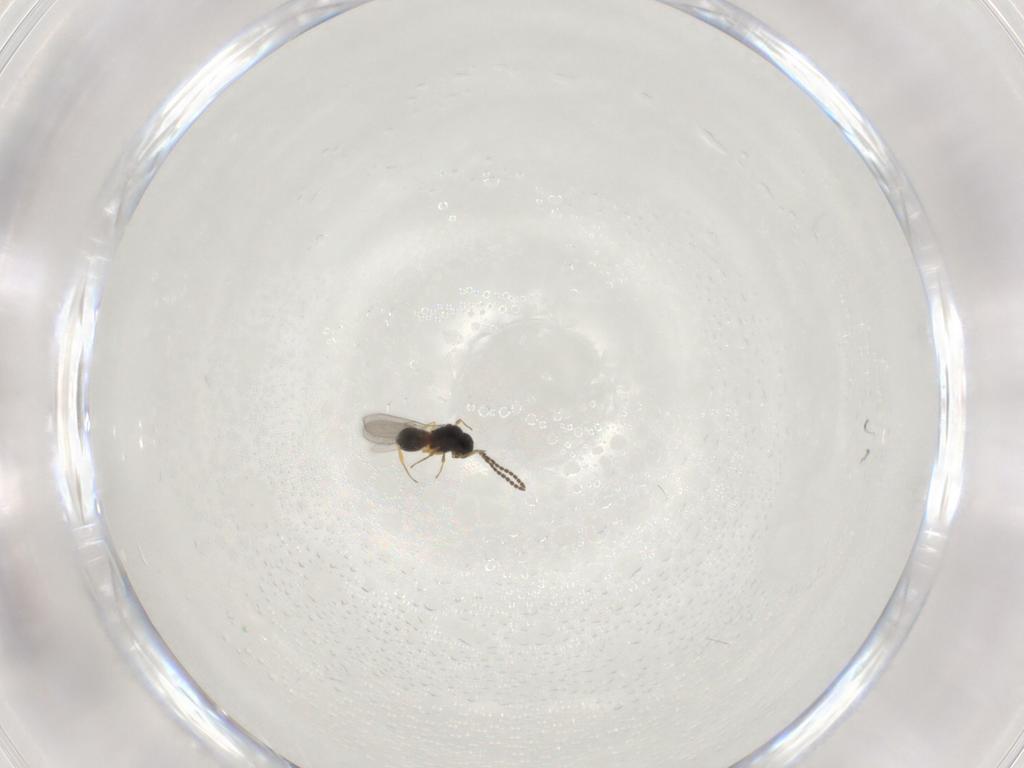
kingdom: Animalia
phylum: Arthropoda
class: Insecta
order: Hymenoptera
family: Scelionidae
